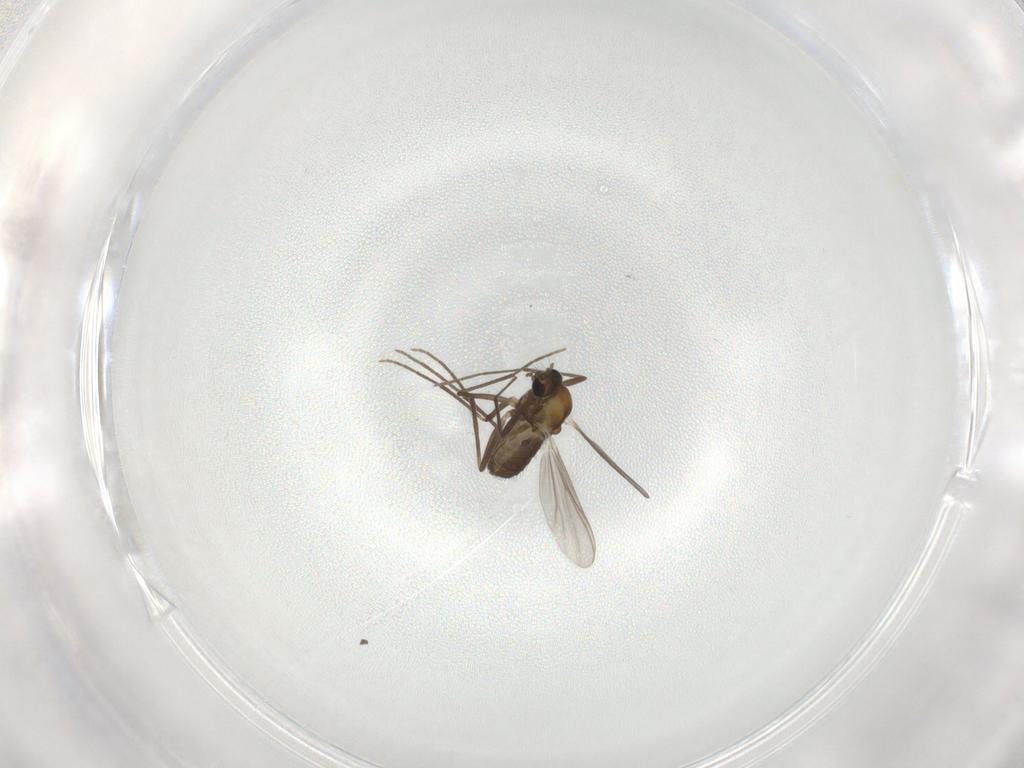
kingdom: Animalia
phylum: Arthropoda
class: Insecta
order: Diptera
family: Chironomidae
